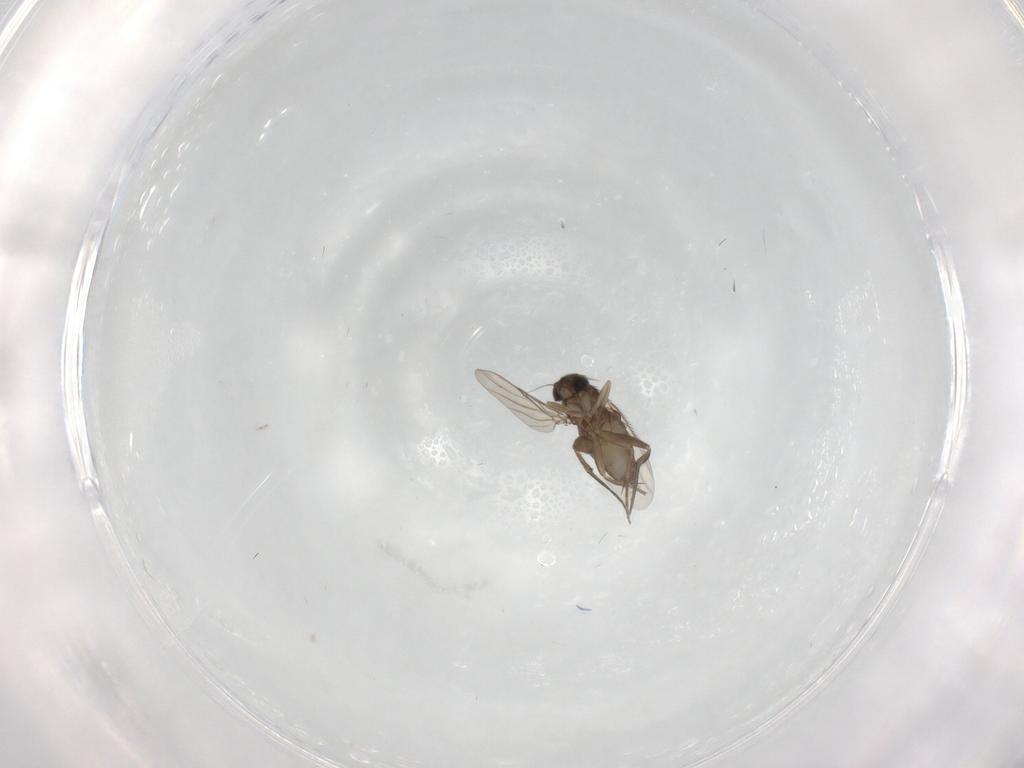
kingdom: Animalia
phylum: Arthropoda
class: Insecta
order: Diptera
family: Phoridae
